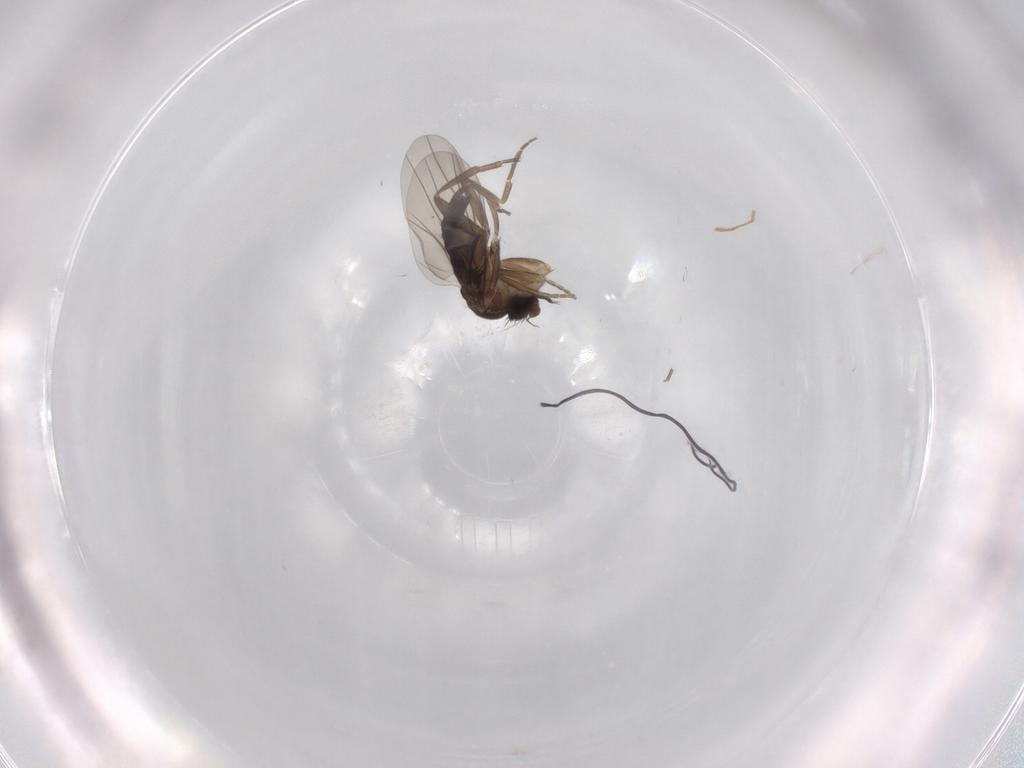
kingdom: Animalia
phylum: Arthropoda
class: Insecta
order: Diptera
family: Phoridae
